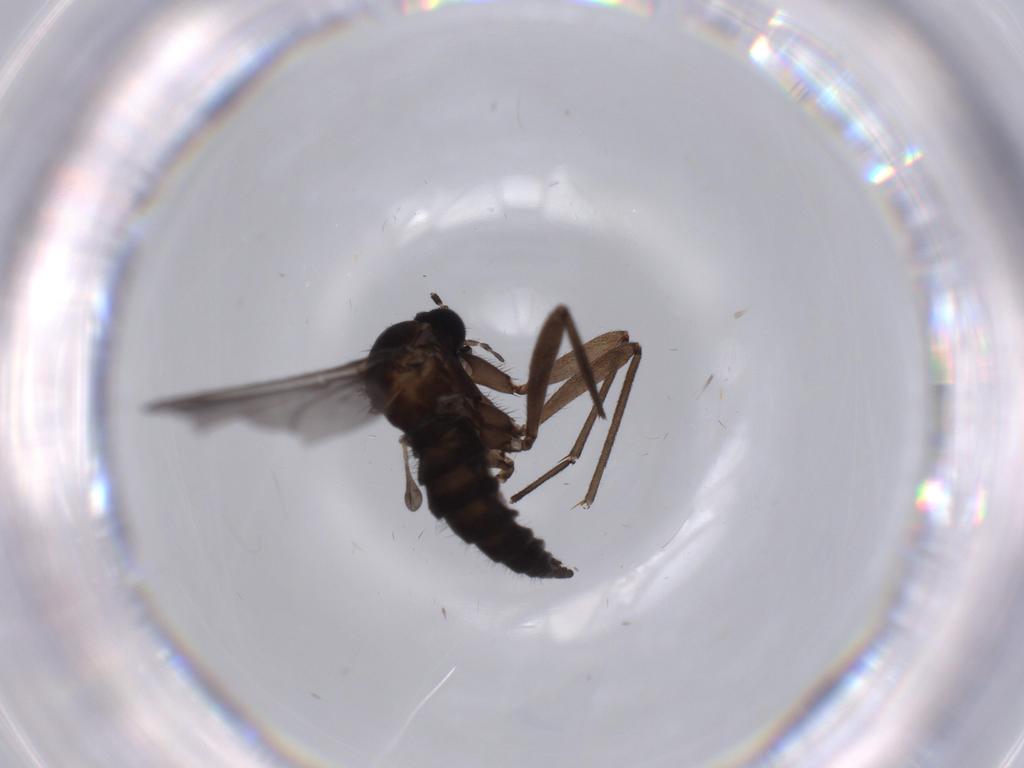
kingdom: Animalia
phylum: Arthropoda
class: Insecta
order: Diptera
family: Sciaridae
